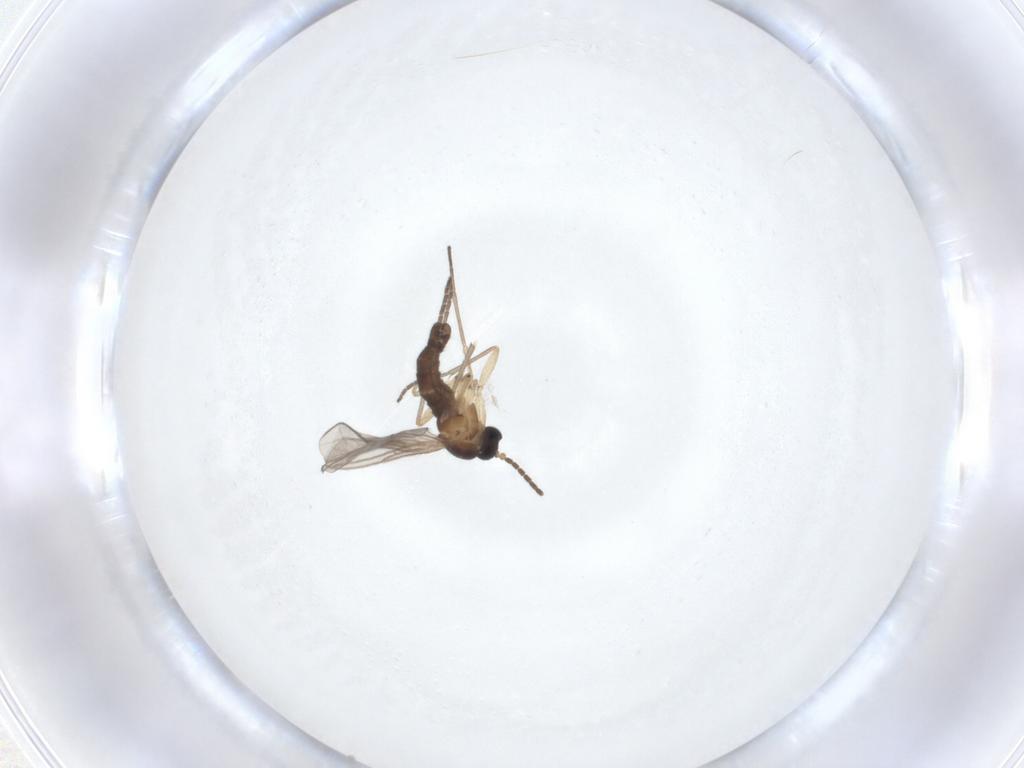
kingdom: Animalia
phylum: Arthropoda
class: Insecta
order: Diptera
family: Sciaridae
